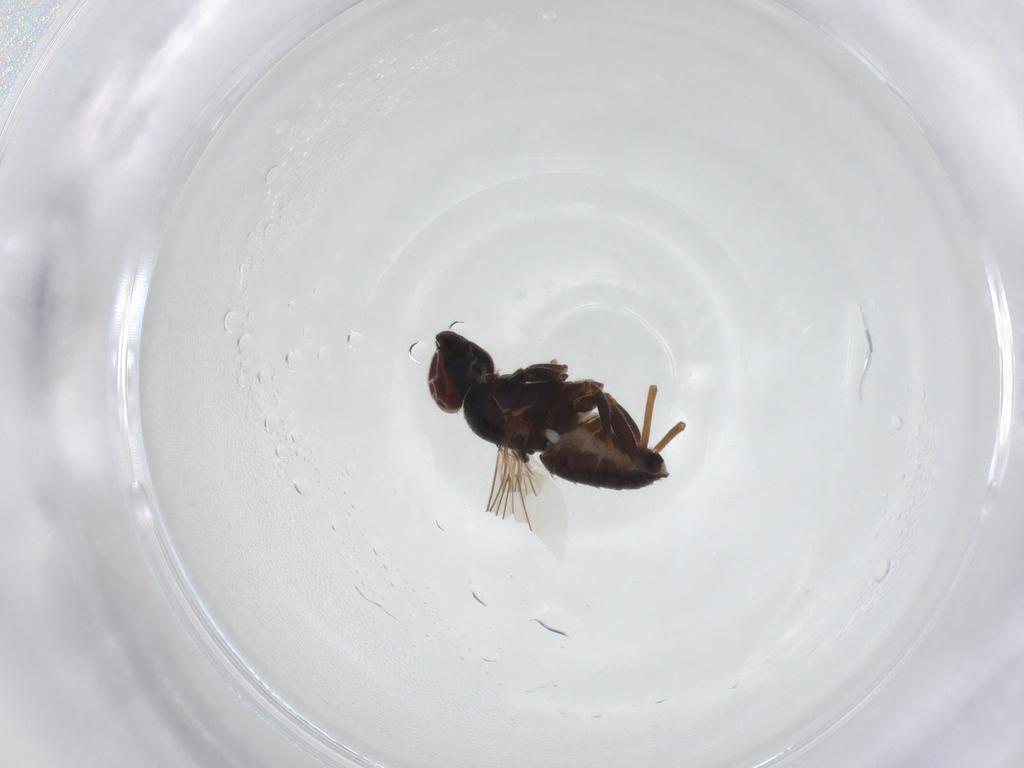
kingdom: Animalia
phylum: Arthropoda
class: Insecta
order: Diptera
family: Dolichopodidae
